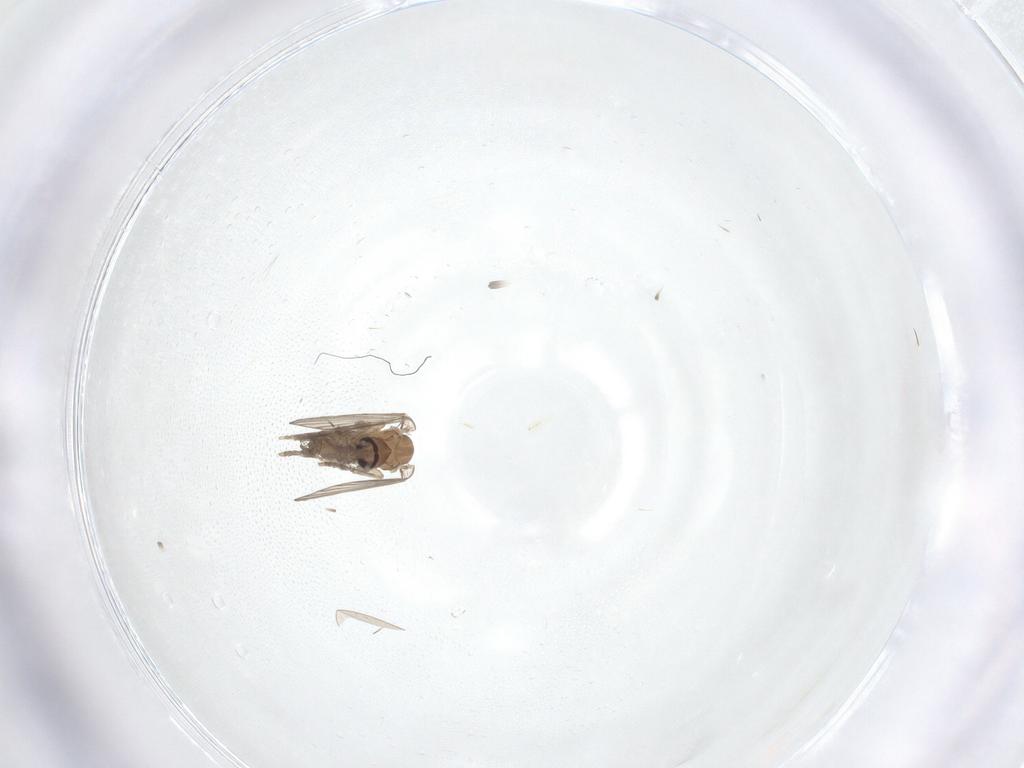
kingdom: Animalia
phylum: Arthropoda
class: Insecta
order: Diptera
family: Psychodidae
